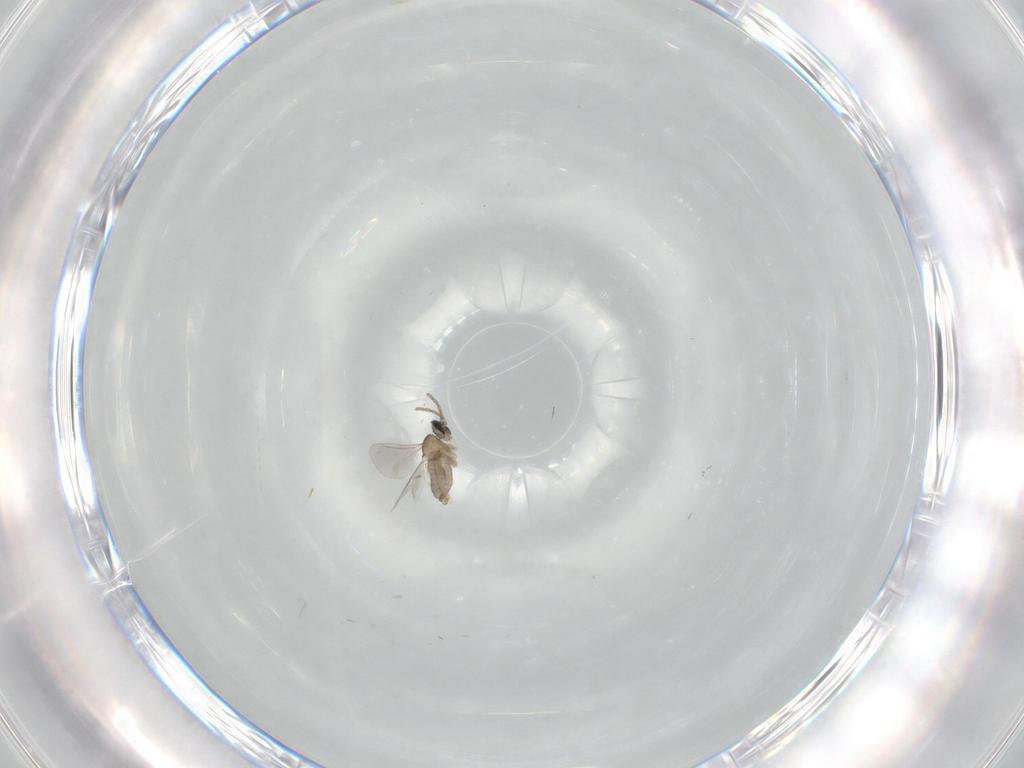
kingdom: Animalia
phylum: Arthropoda
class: Insecta
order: Diptera
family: Cecidomyiidae
